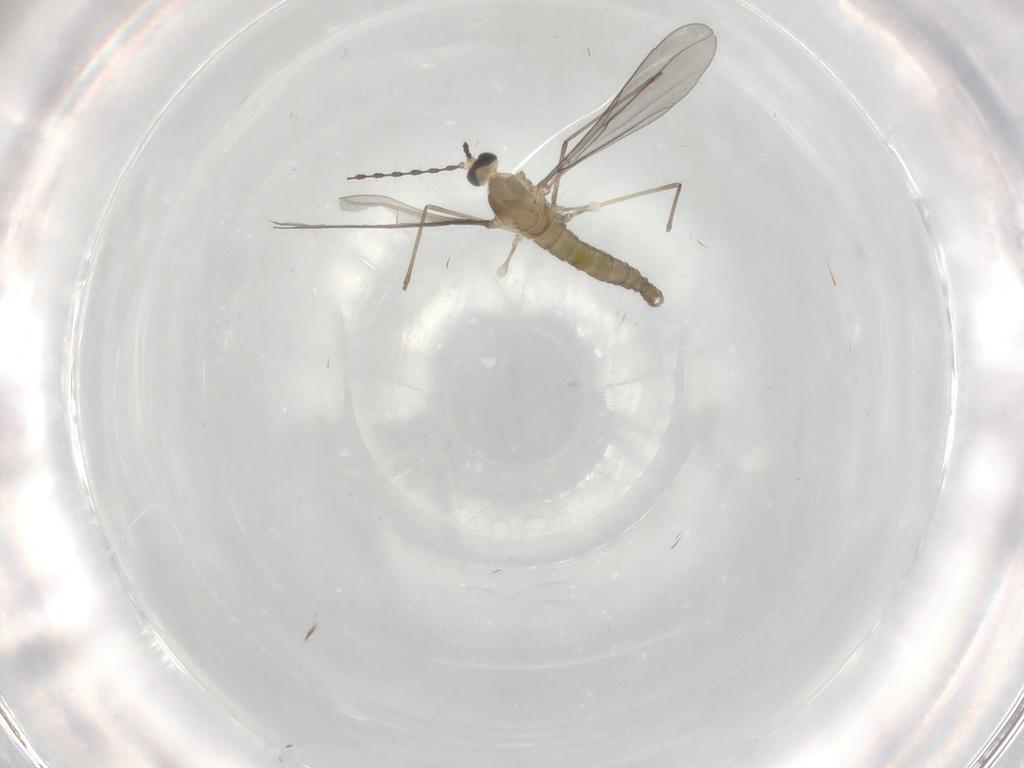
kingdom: Animalia
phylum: Arthropoda
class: Insecta
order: Diptera
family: Cecidomyiidae
